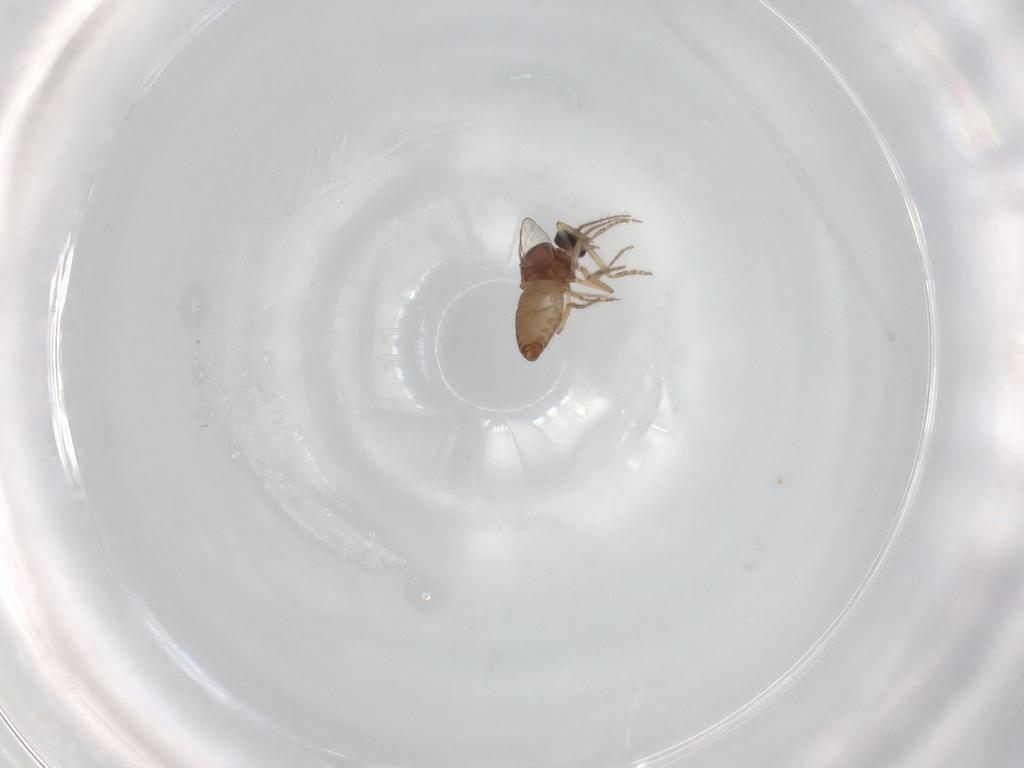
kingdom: Animalia
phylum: Arthropoda
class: Insecta
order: Diptera
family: Ceratopogonidae
